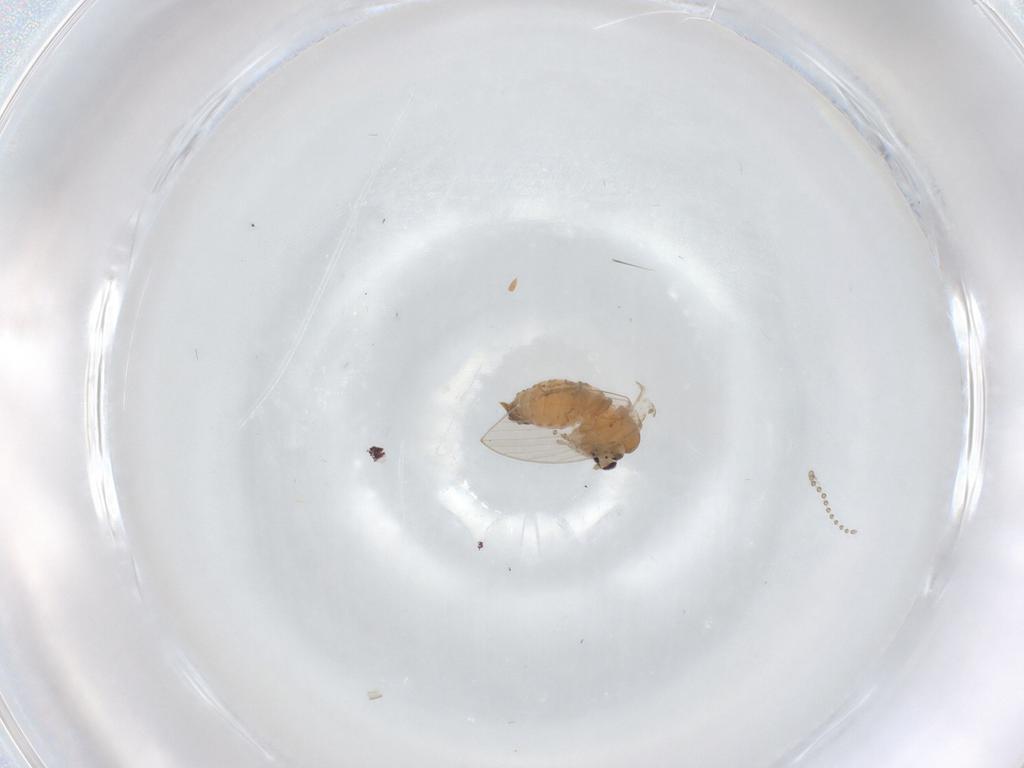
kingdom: Animalia
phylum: Arthropoda
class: Insecta
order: Diptera
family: Psychodidae
